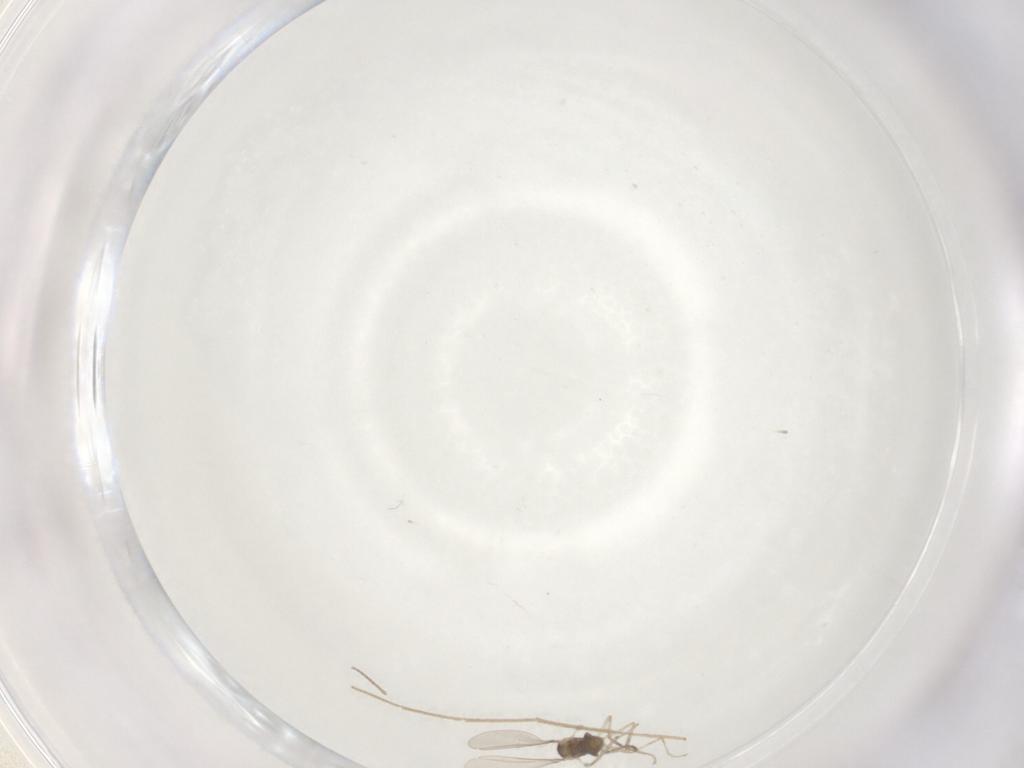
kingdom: Animalia
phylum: Arthropoda
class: Insecta
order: Diptera
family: Cecidomyiidae
